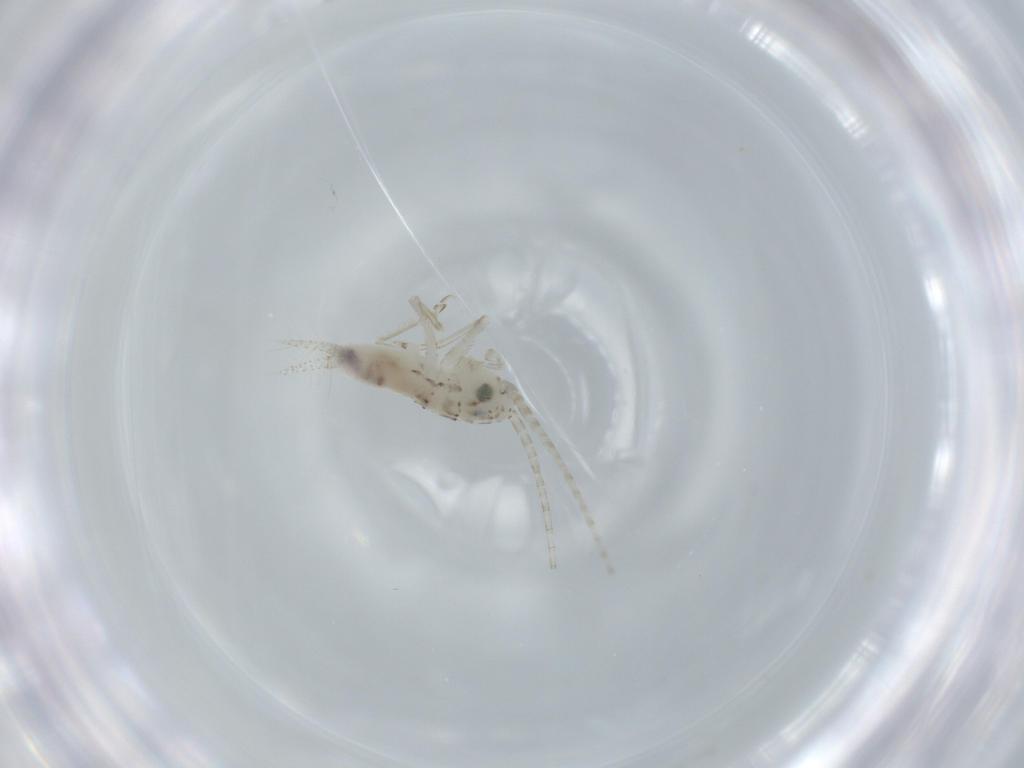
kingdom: Animalia
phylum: Arthropoda
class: Insecta
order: Orthoptera
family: Trigonidiidae
